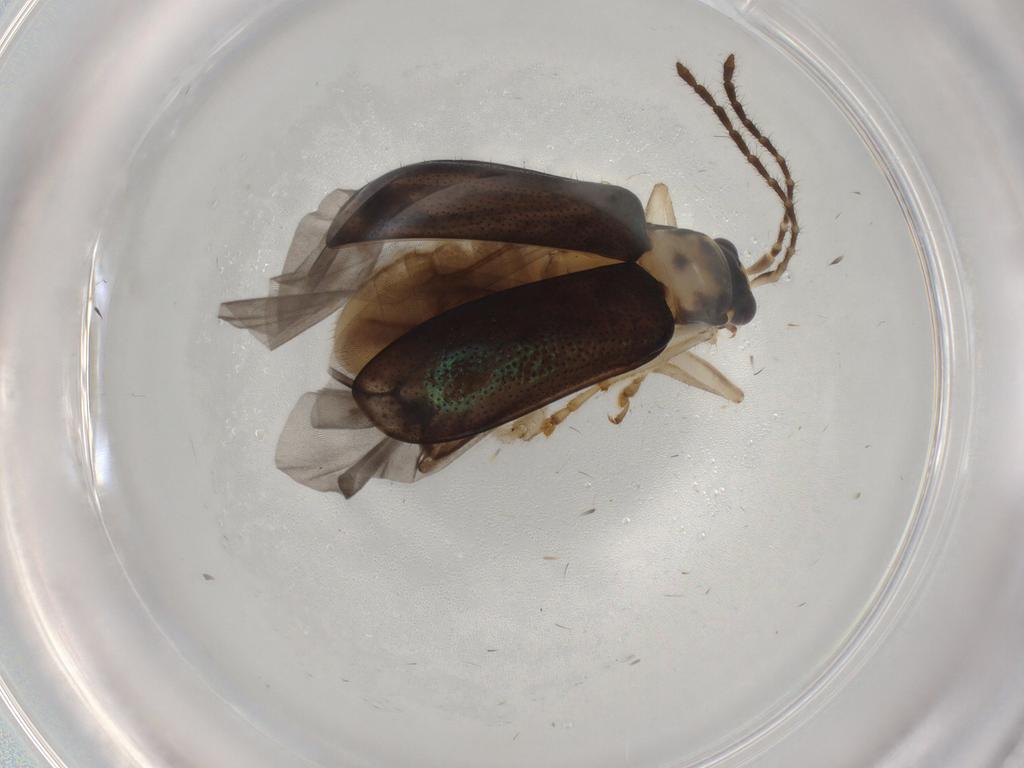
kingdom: Animalia
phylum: Arthropoda
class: Insecta
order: Coleoptera
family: Chrysomelidae
